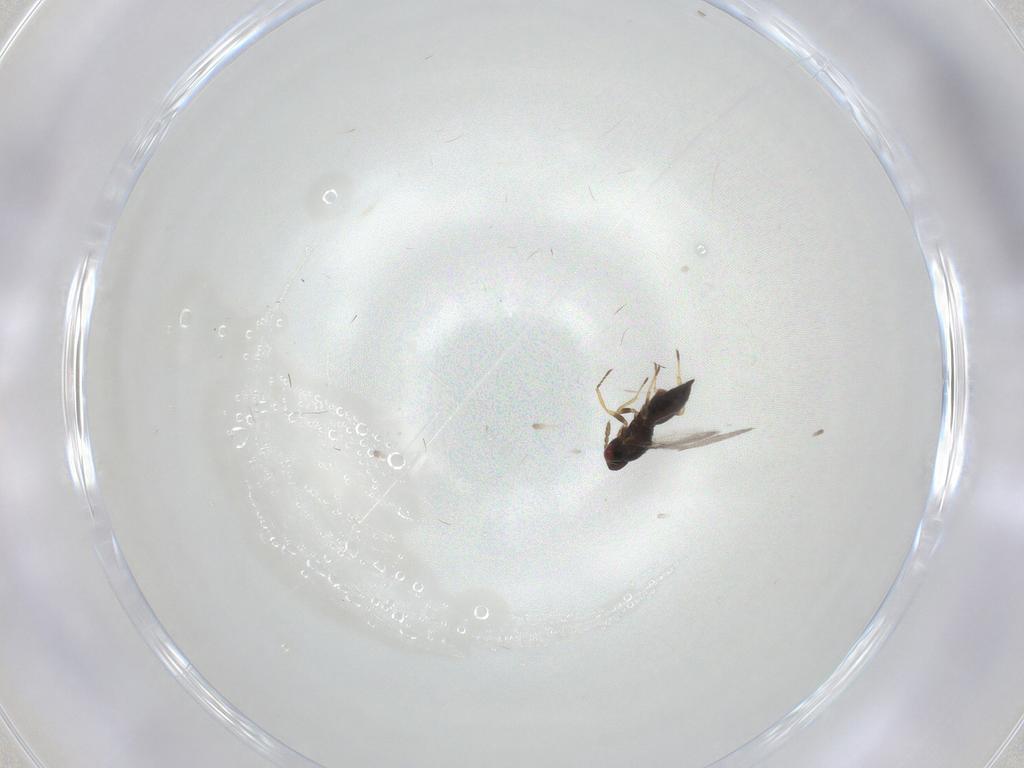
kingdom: Animalia
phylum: Arthropoda
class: Insecta
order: Hymenoptera
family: Eulophidae
